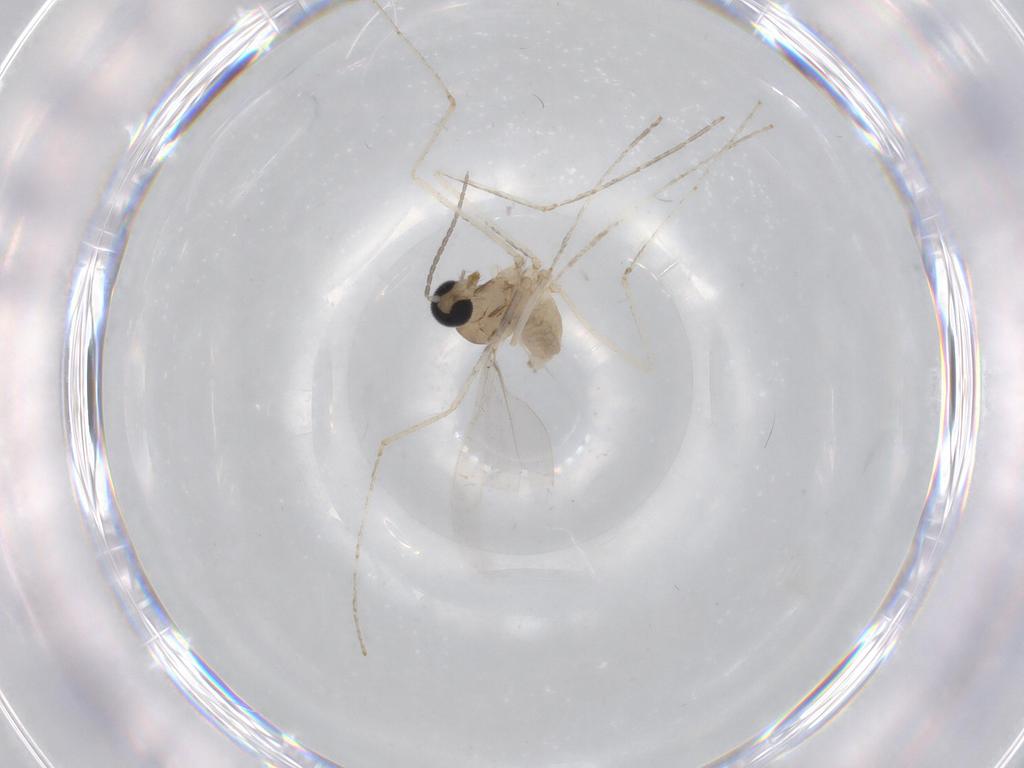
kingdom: Animalia
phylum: Arthropoda
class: Insecta
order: Diptera
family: Cecidomyiidae
